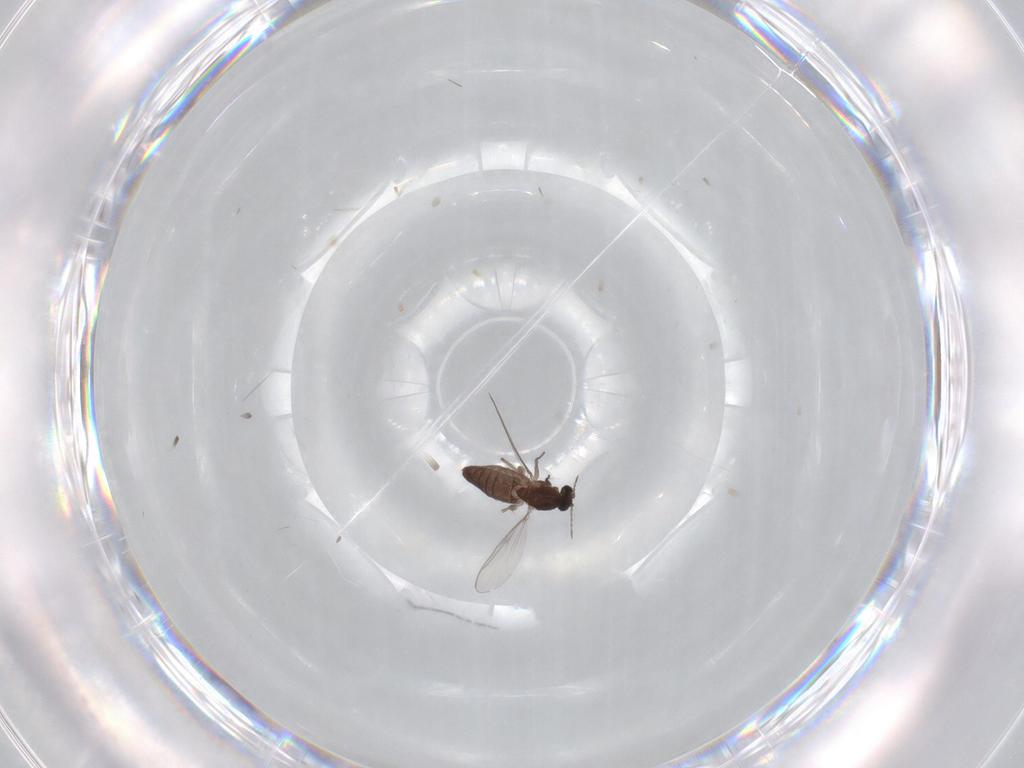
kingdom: Animalia
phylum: Arthropoda
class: Insecta
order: Diptera
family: Chironomidae
